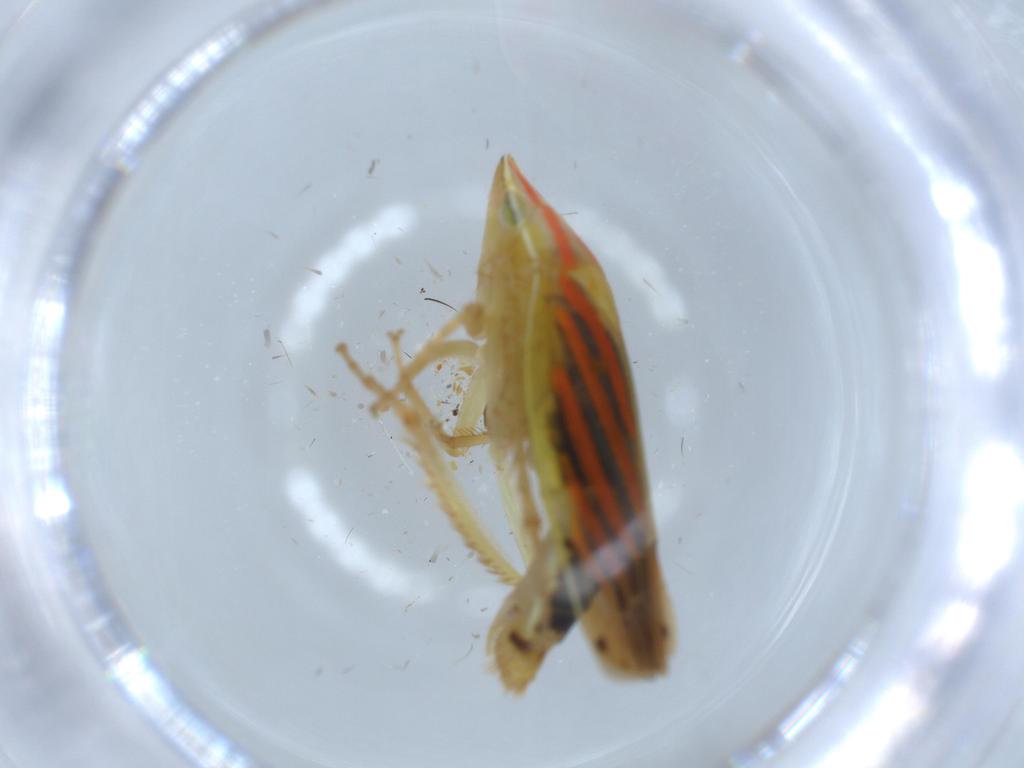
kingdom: Animalia
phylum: Arthropoda
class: Insecta
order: Hemiptera
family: Cicadellidae
